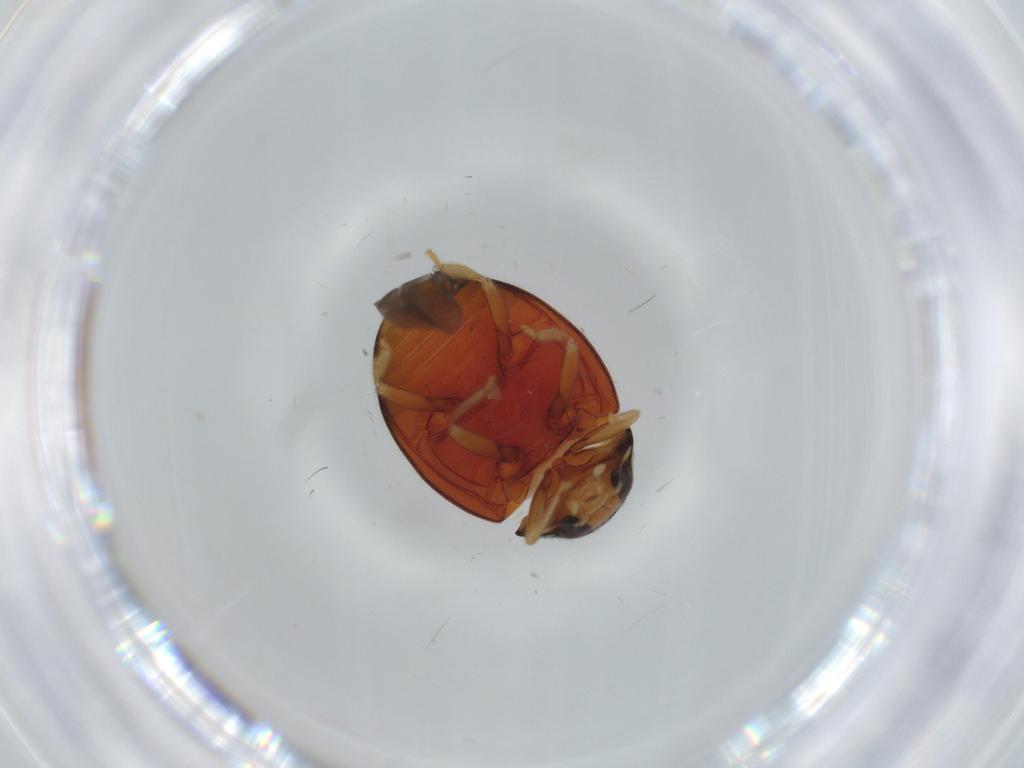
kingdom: Animalia
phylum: Arthropoda
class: Insecta
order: Coleoptera
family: Coccinellidae
